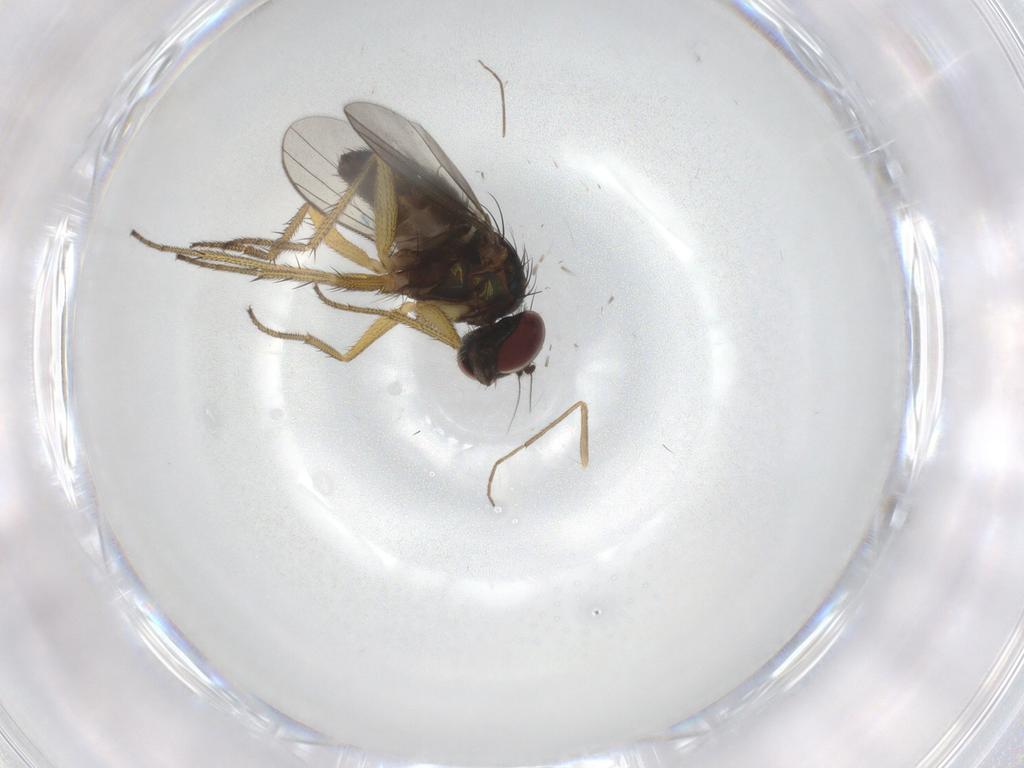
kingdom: Animalia
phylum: Arthropoda
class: Insecta
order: Diptera
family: Dolichopodidae
